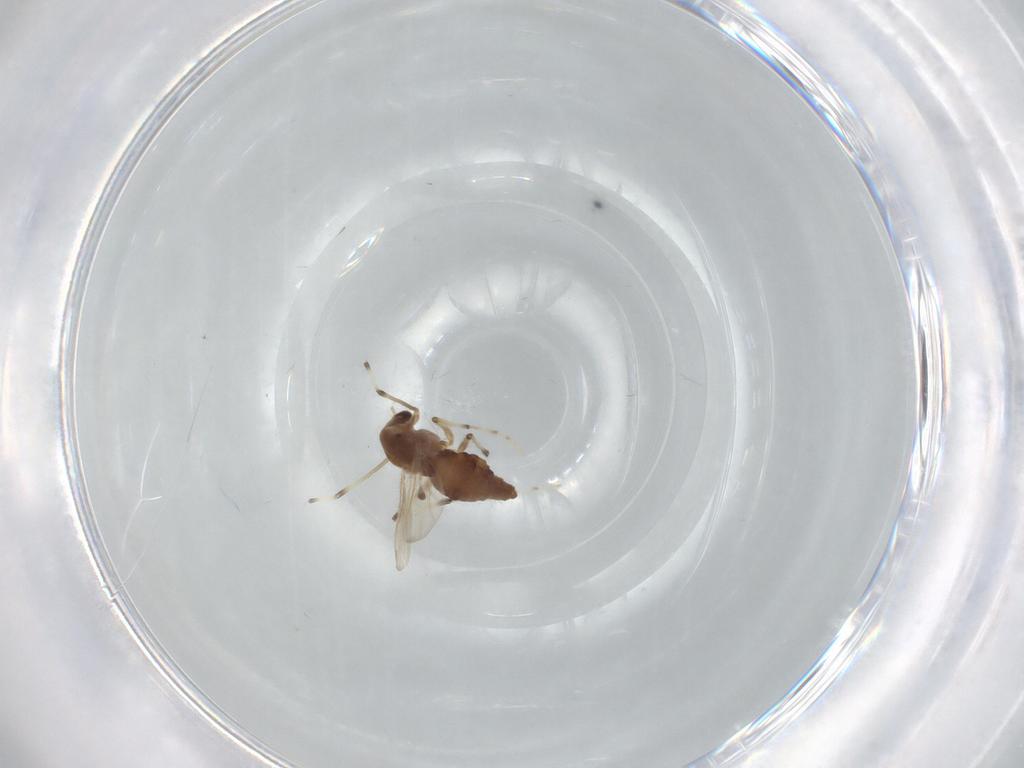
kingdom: Animalia
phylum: Arthropoda
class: Insecta
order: Diptera
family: Chironomidae
